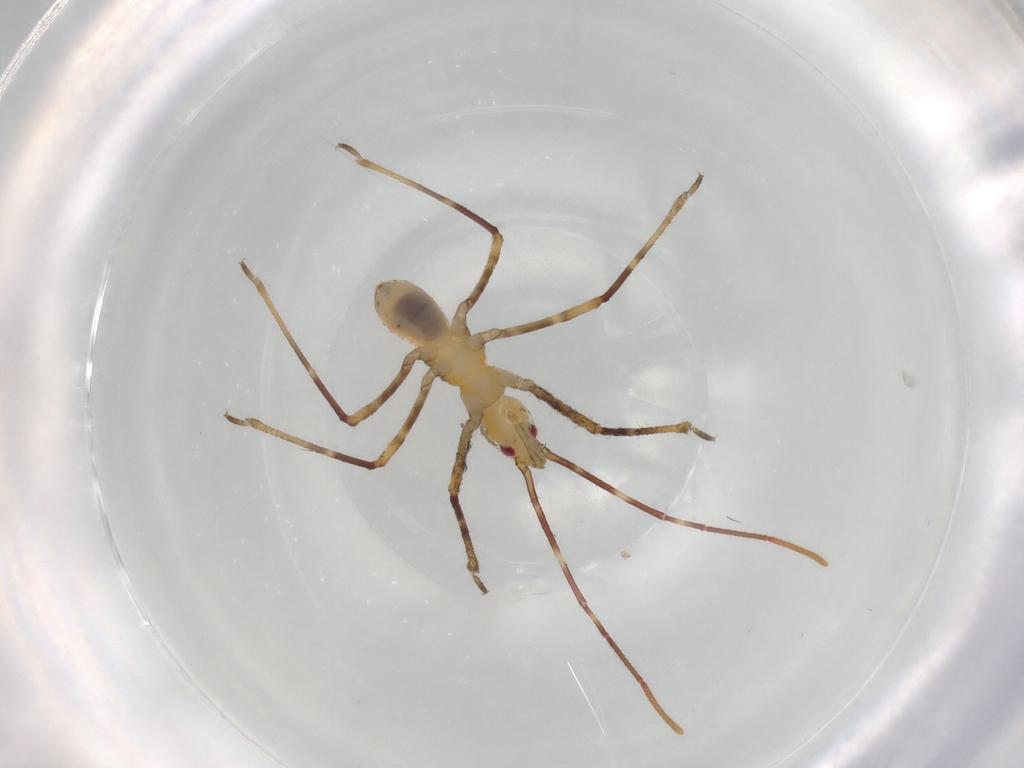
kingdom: Animalia
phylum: Arthropoda
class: Insecta
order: Hemiptera
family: Reduviidae
